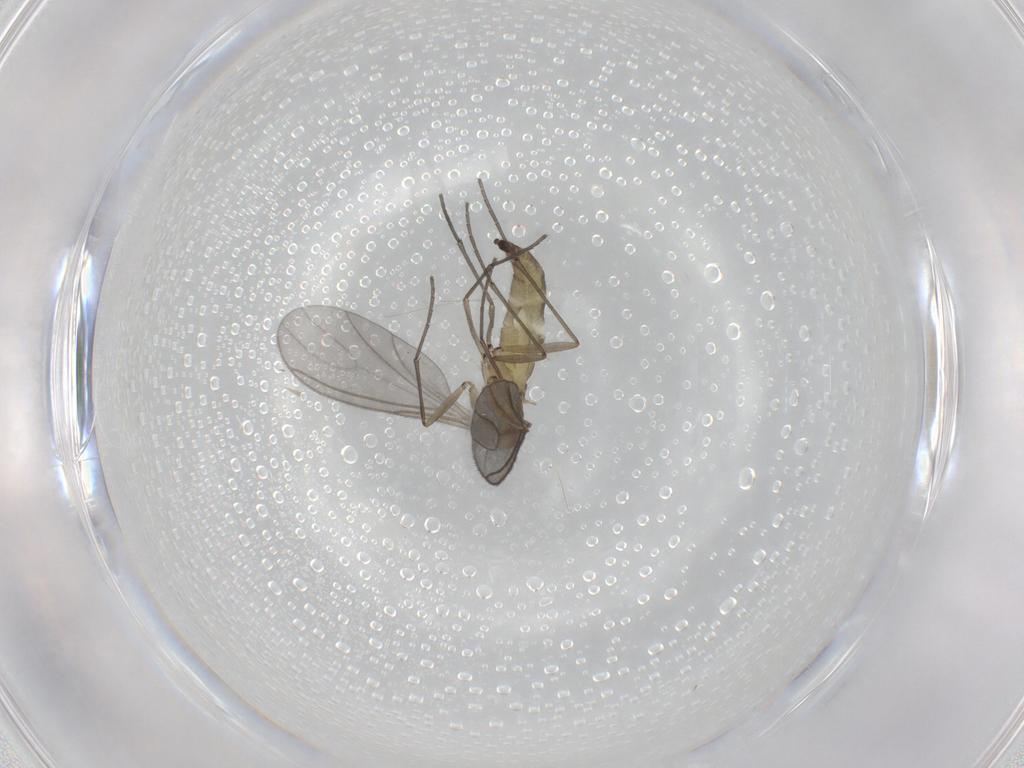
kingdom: Animalia
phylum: Arthropoda
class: Insecta
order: Diptera
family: Sciaridae
